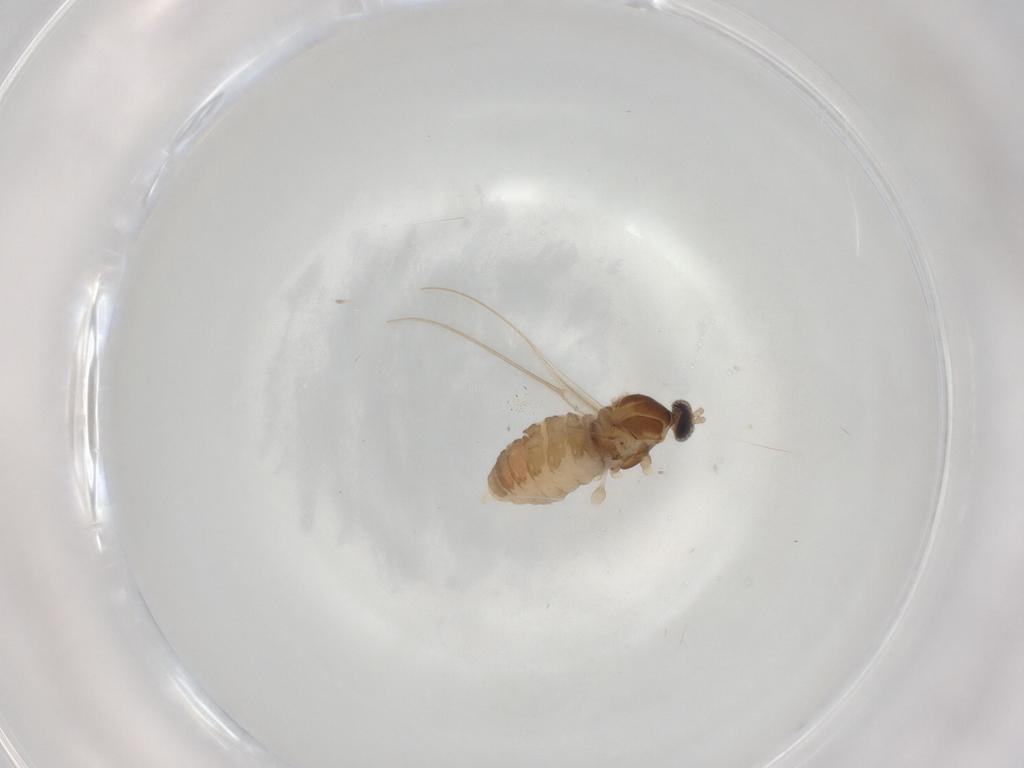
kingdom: Animalia
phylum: Arthropoda
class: Insecta
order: Diptera
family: Cecidomyiidae
